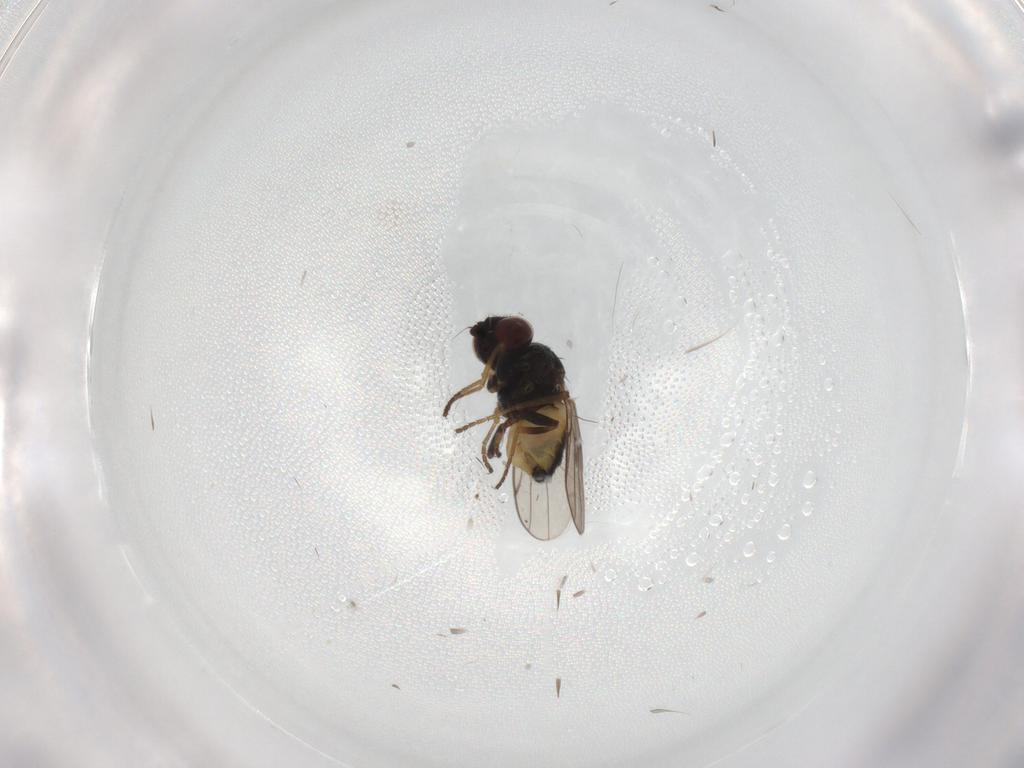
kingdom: Animalia
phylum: Arthropoda
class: Insecta
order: Diptera
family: Chloropidae
